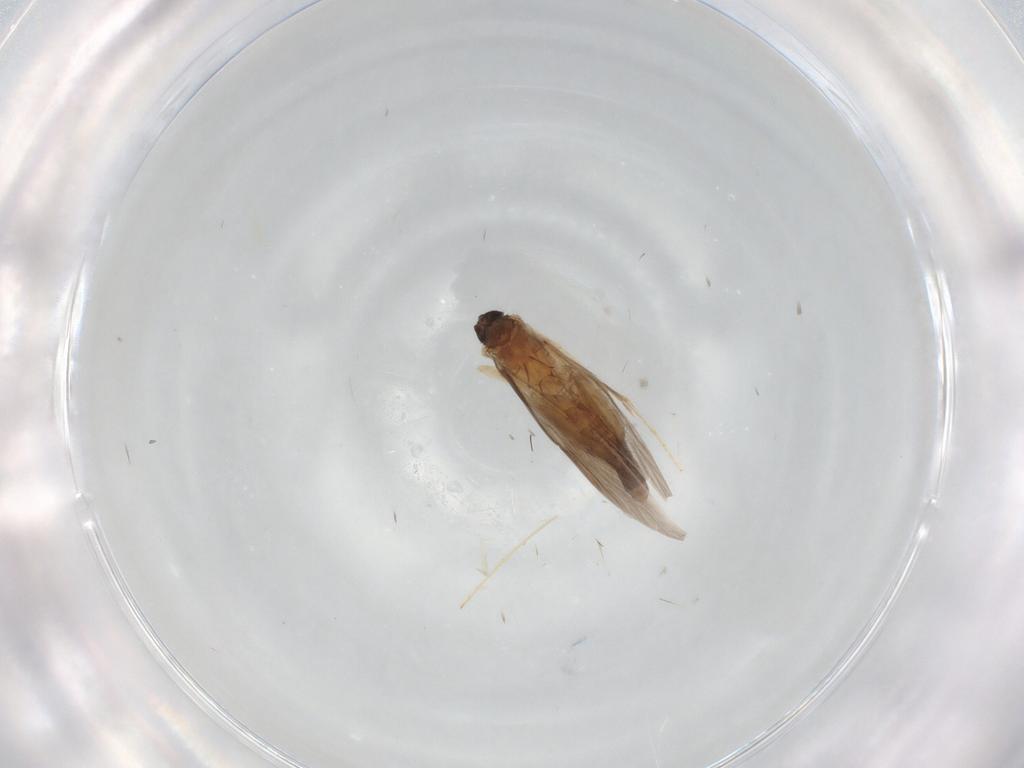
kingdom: Animalia
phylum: Arthropoda
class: Insecta
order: Trichoptera
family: Hydroptilidae
